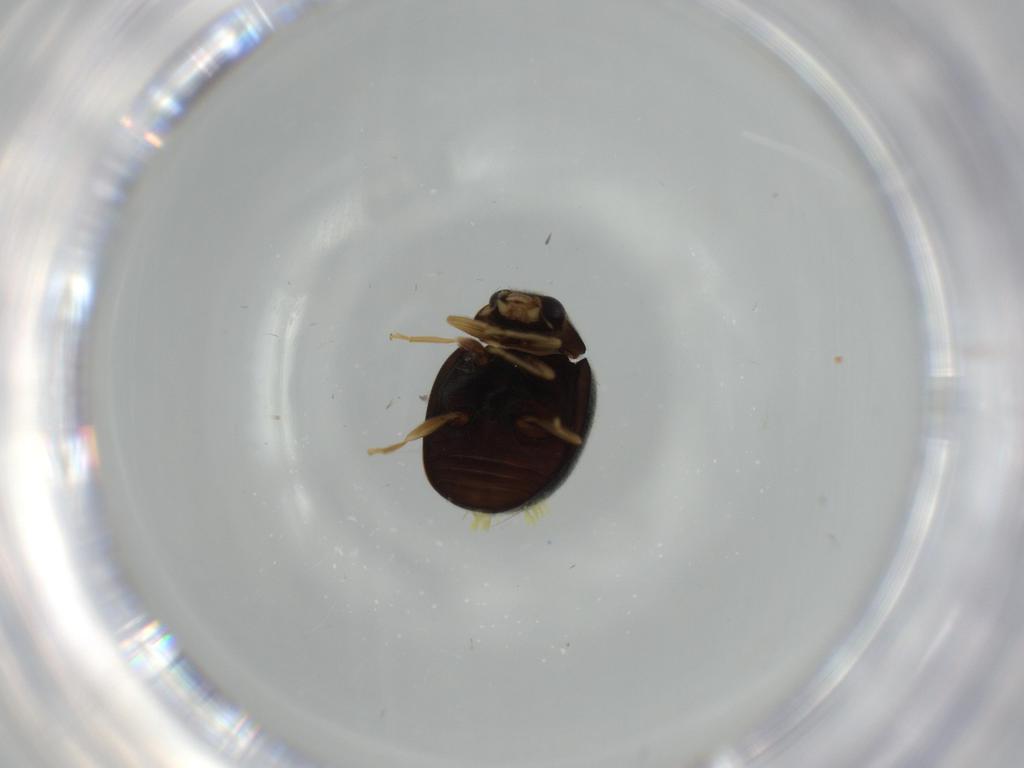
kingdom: Animalia
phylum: Arthropoda
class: Insecta
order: Coleoptera
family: Coccinellidae
